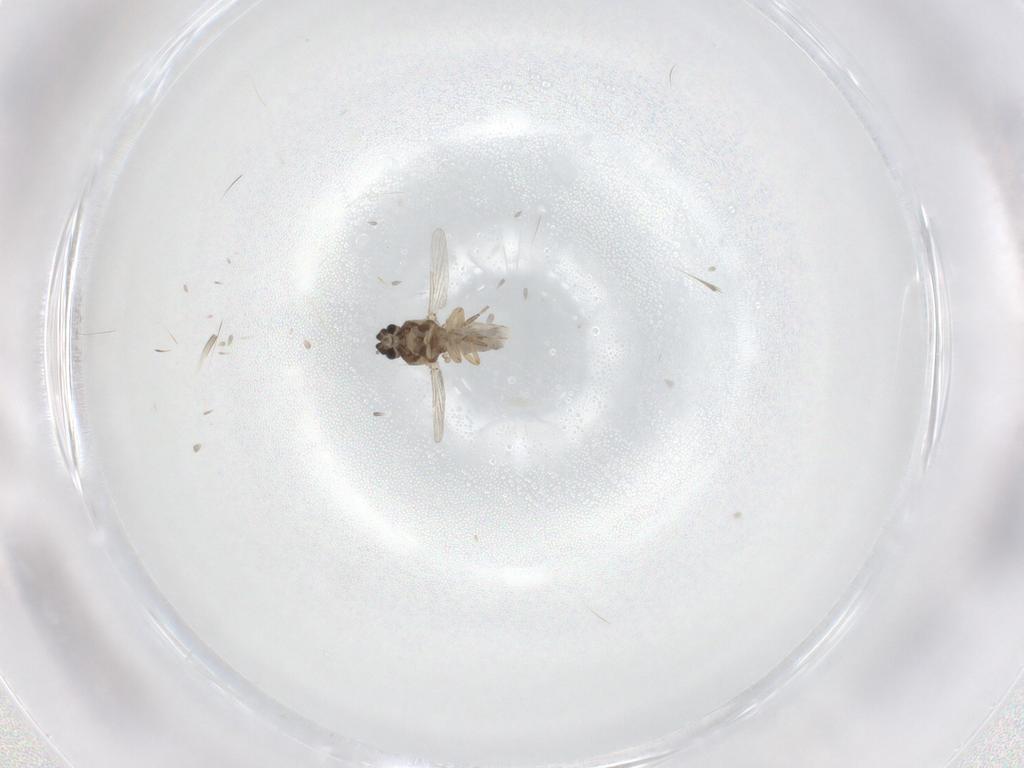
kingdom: Animalia
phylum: Arthropoda
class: Insecta
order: Diptera
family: Ceratopogonidae
